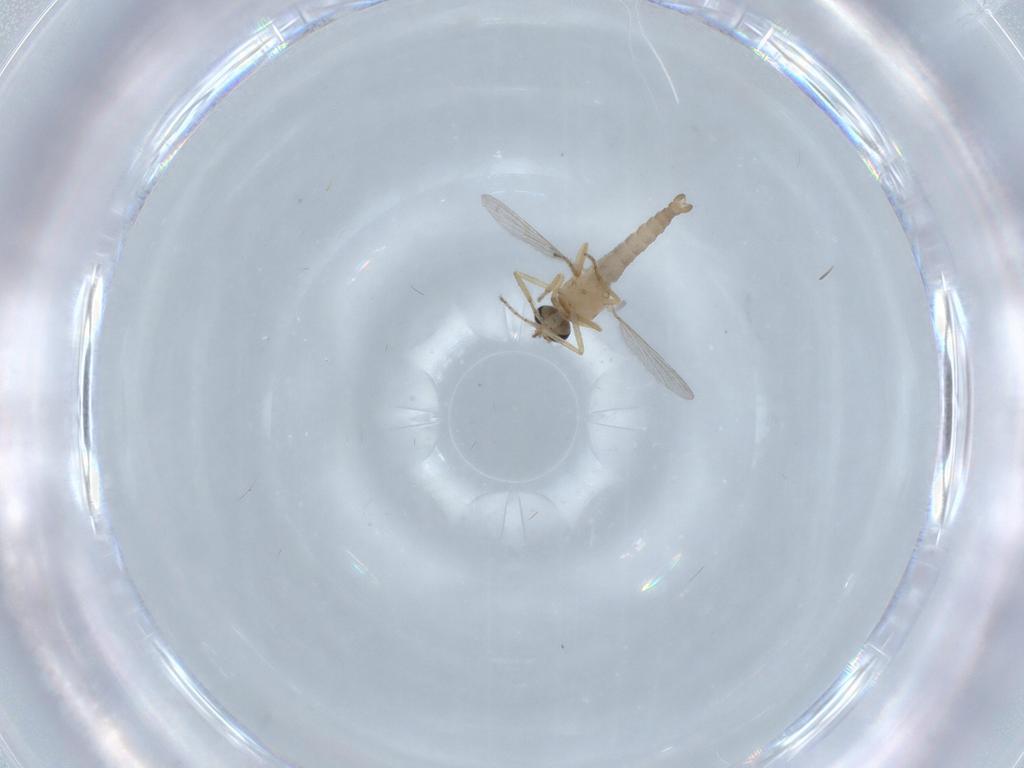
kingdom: Animalia
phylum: Arthropoda
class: Insecta
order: Diptera
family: Ceratopogonidae
